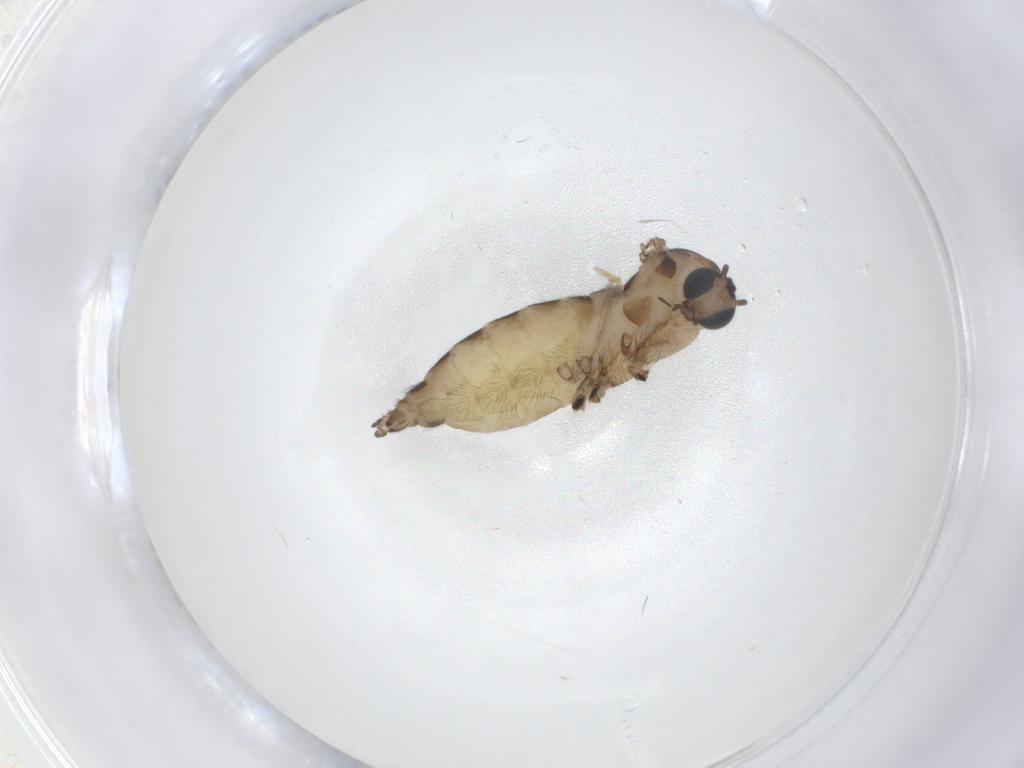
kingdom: Animalia
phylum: Arthropoda
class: Insecta
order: Diptera
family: Sciaridae
